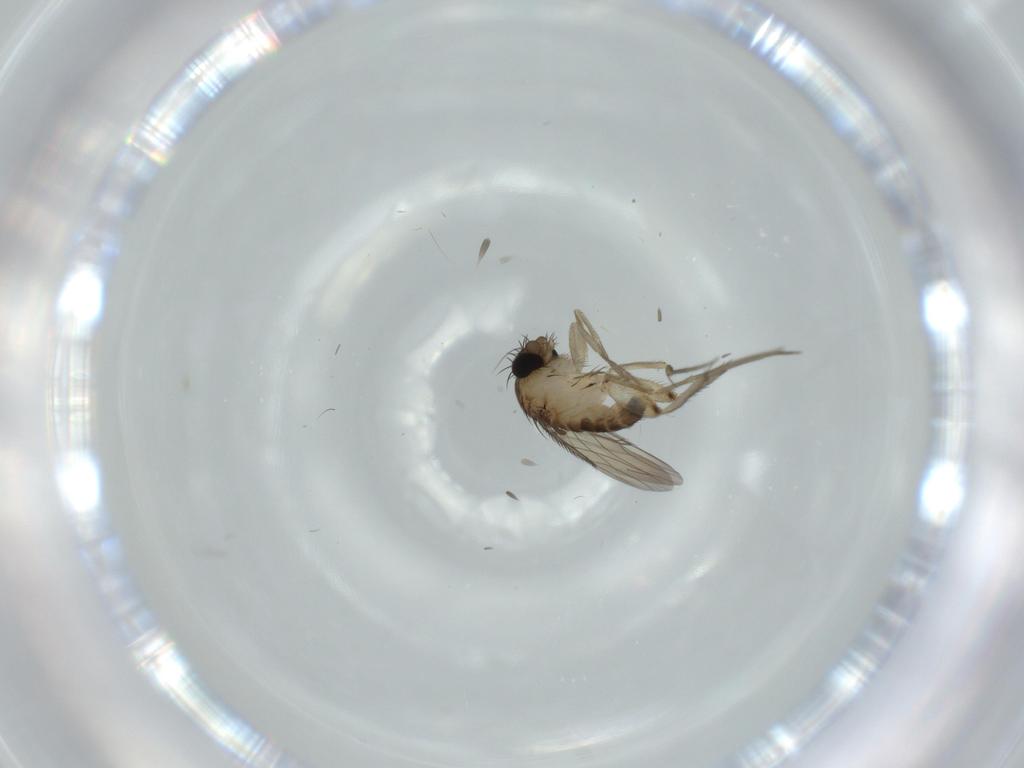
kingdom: Animalia
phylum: Arthropoda
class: Insecta
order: Diptera
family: Phoridae
